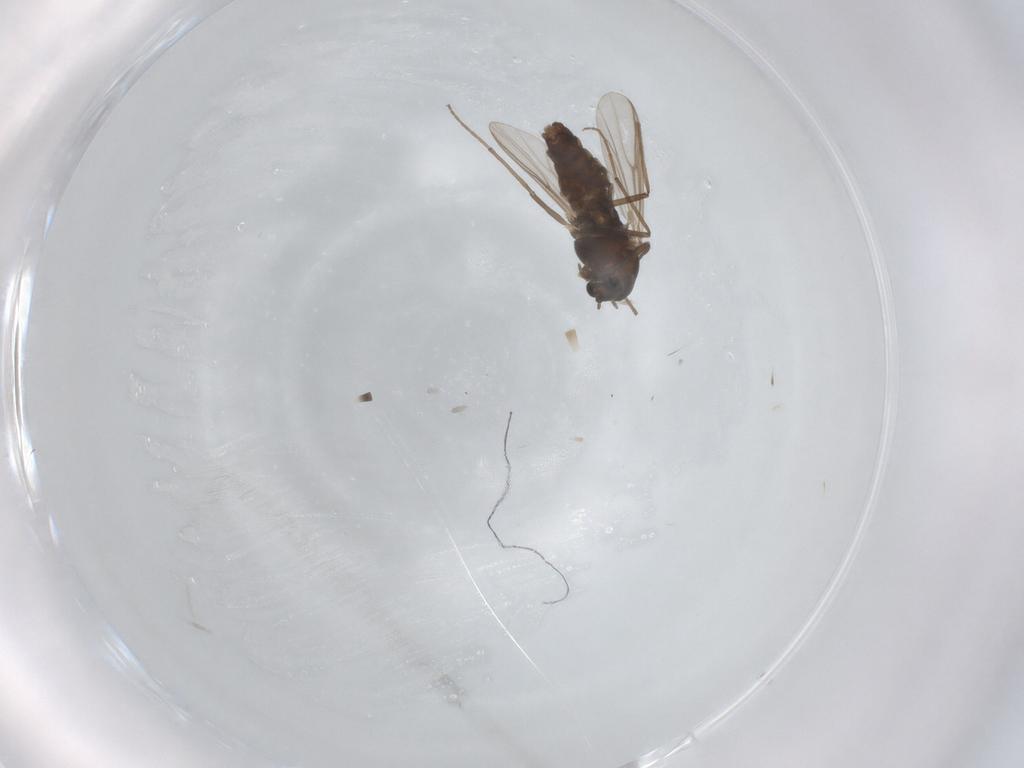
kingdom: Animalia
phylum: Arthropoda
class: Insecta
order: Diptera
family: Chironomidae
